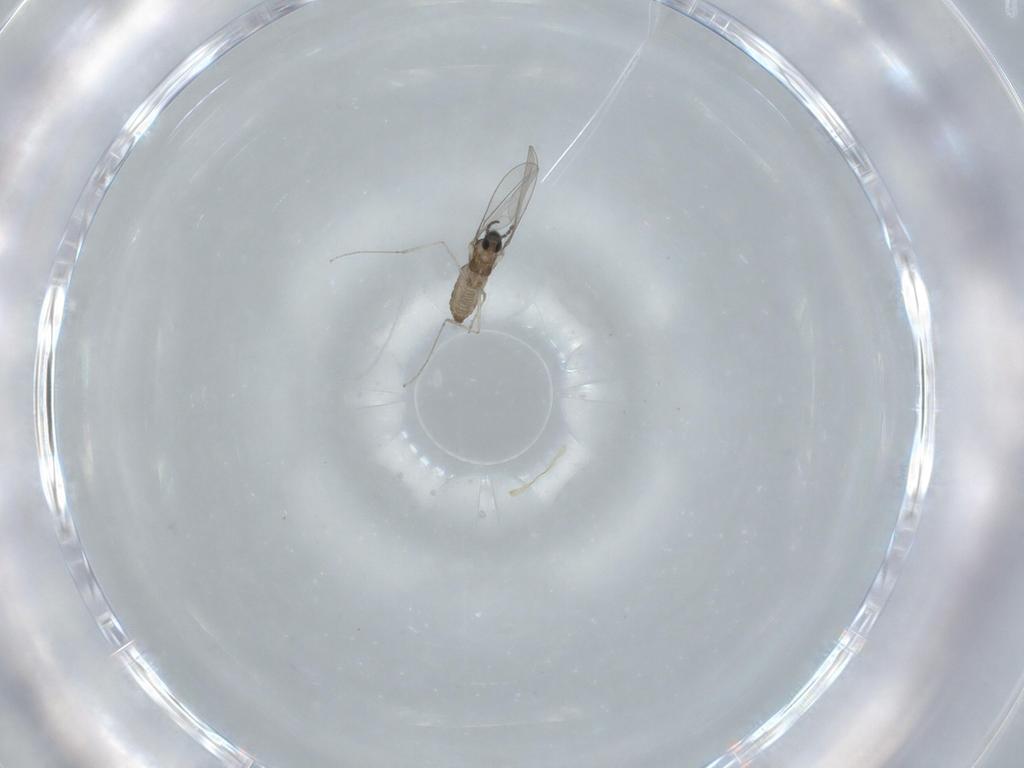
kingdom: Animalia
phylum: Arthropoda
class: Insecta
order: Diptera
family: Cecidomyiidae
